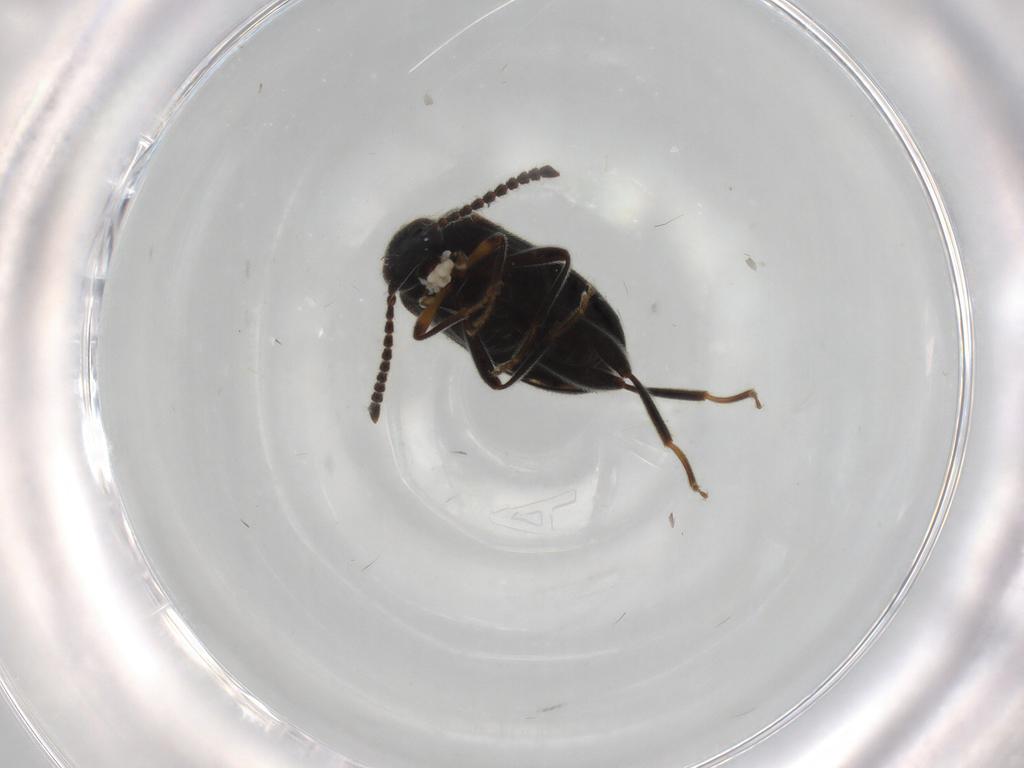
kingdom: Animalia
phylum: Arthropoda
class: Insecta
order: Coleoptera
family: Aderidae
